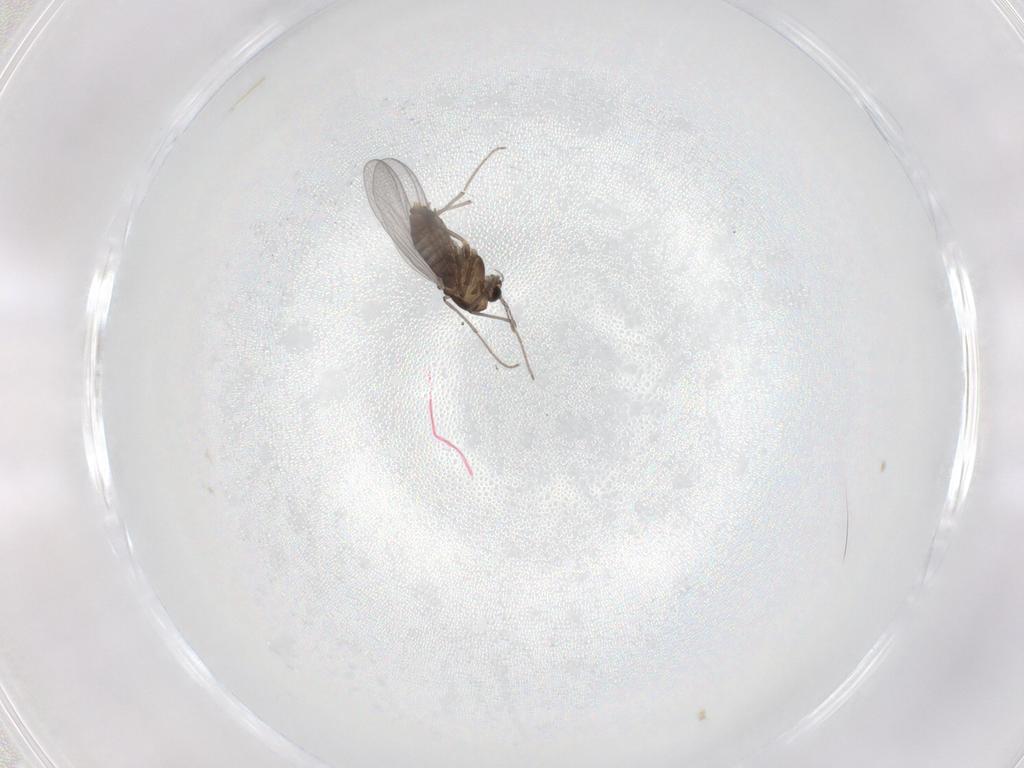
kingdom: Animalia
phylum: Arthropoda
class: Insecta
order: Diptera
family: Chironomidae
